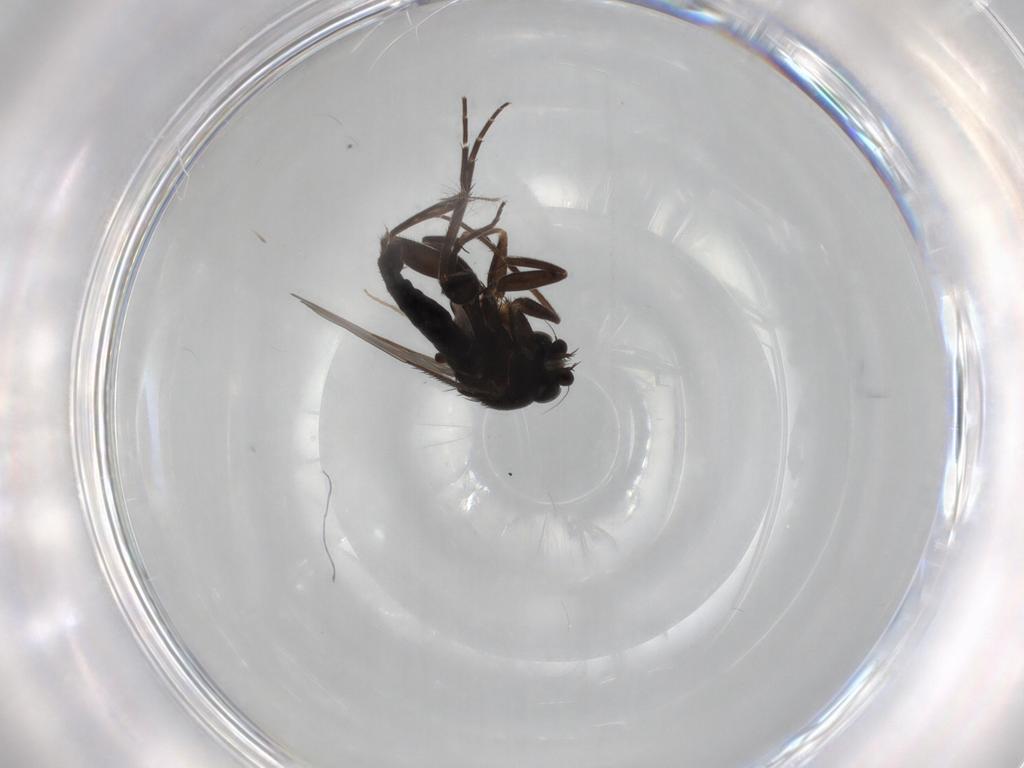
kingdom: Animalia
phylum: Arthropoda
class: Insecta
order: Diptera
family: Phoridae
